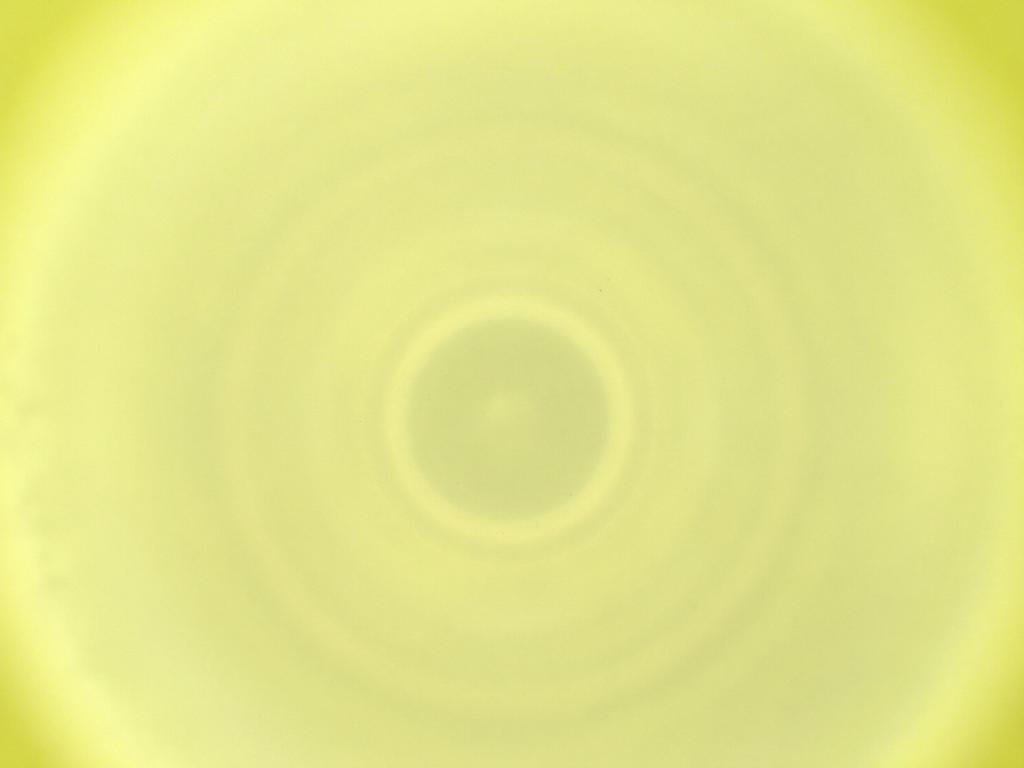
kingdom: Animalia
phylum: Arthropoda
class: Insecta
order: Diptera
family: Cecidomyiidae
